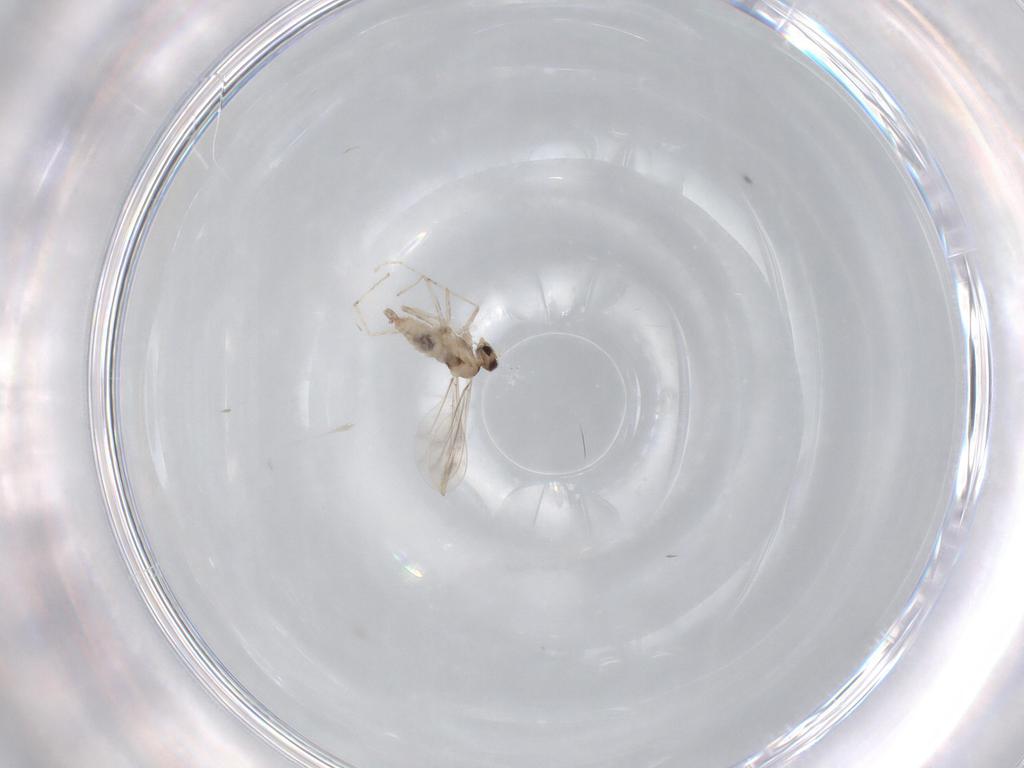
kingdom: Animalia
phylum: Arthropoda
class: Insecta
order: Diptera
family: Cecidomyiidae
